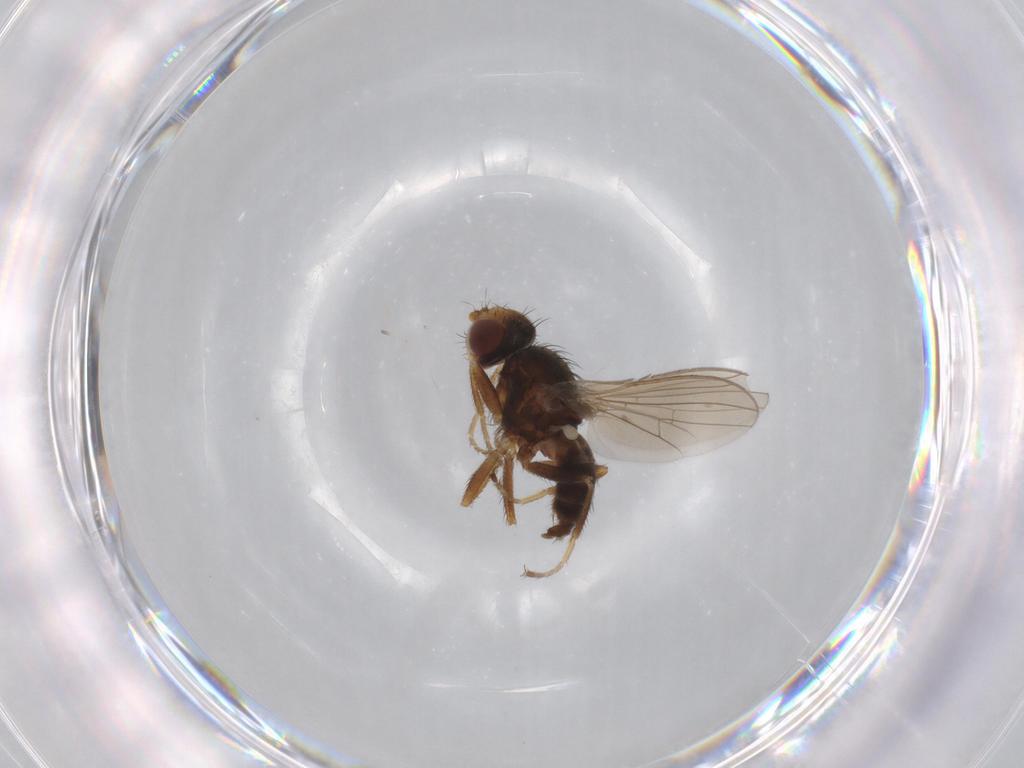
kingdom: Animalia
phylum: Arthropoda
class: Insecta
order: Diptera
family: Canacidae
